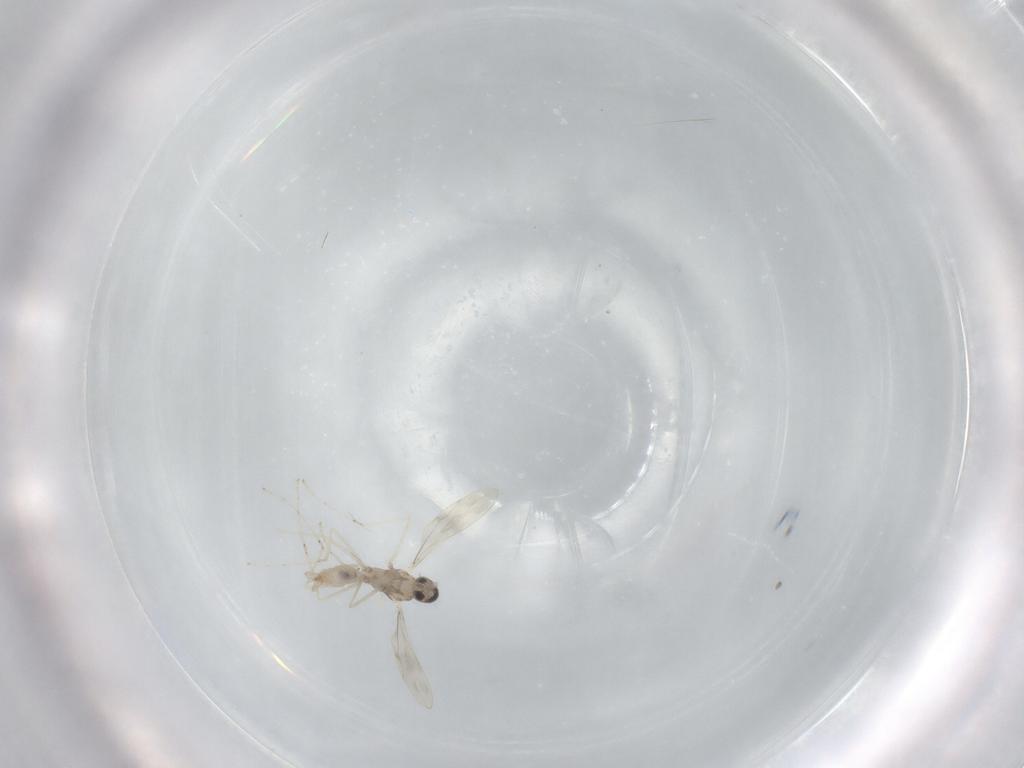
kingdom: Animalia
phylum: Arthropoda
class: Insecta
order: Diptera
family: Cecidomyiidae
